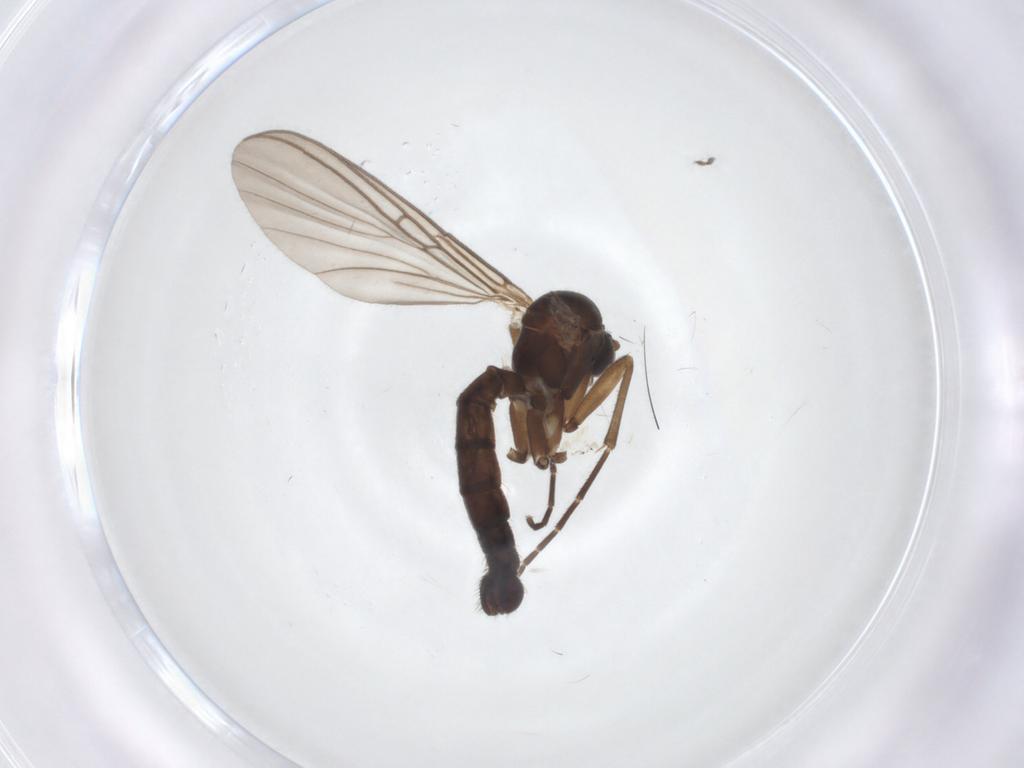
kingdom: Animalia
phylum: Arthropoda
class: Insecta
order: Diptera
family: Mycetophilidae
